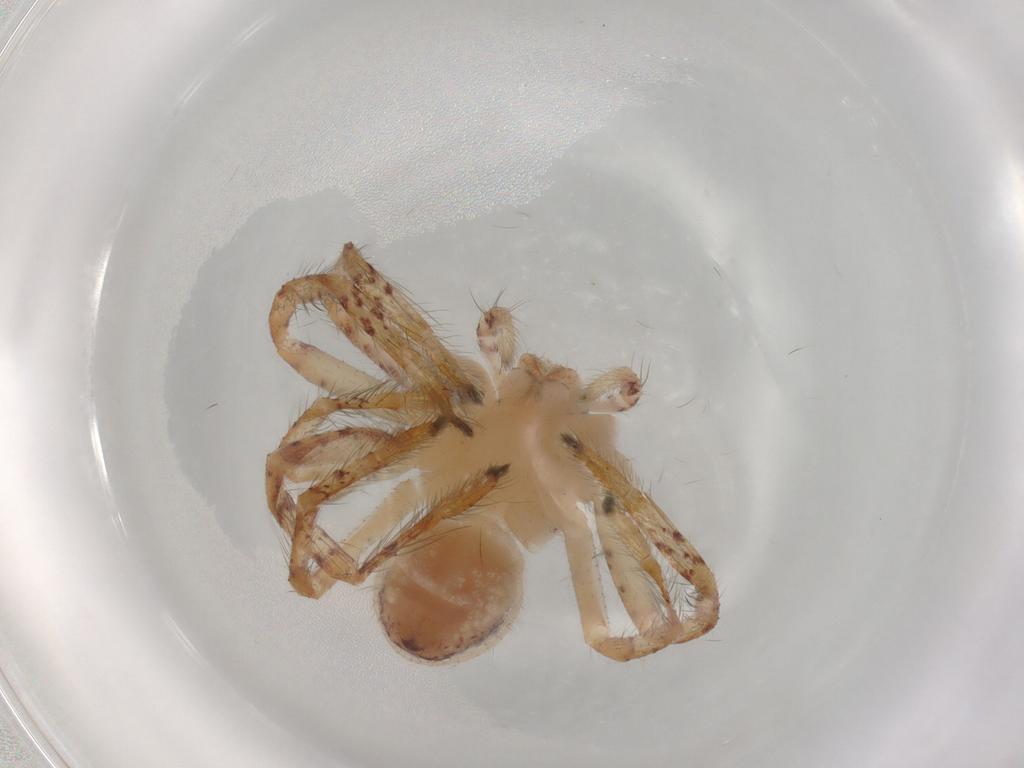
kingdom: Animalia
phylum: Arthropoda
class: Arachnida
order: Araneae
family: Sparassidae
